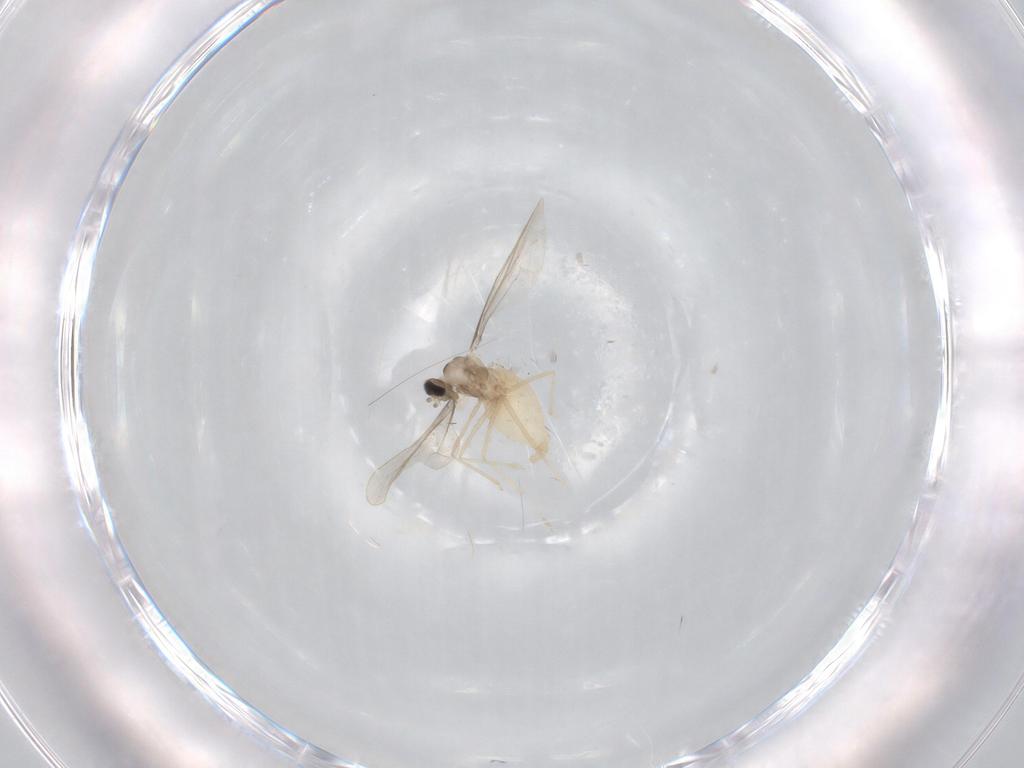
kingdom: Animalia
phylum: Arthropoda
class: Insecta
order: Diptera
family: Cecidomyiidae
